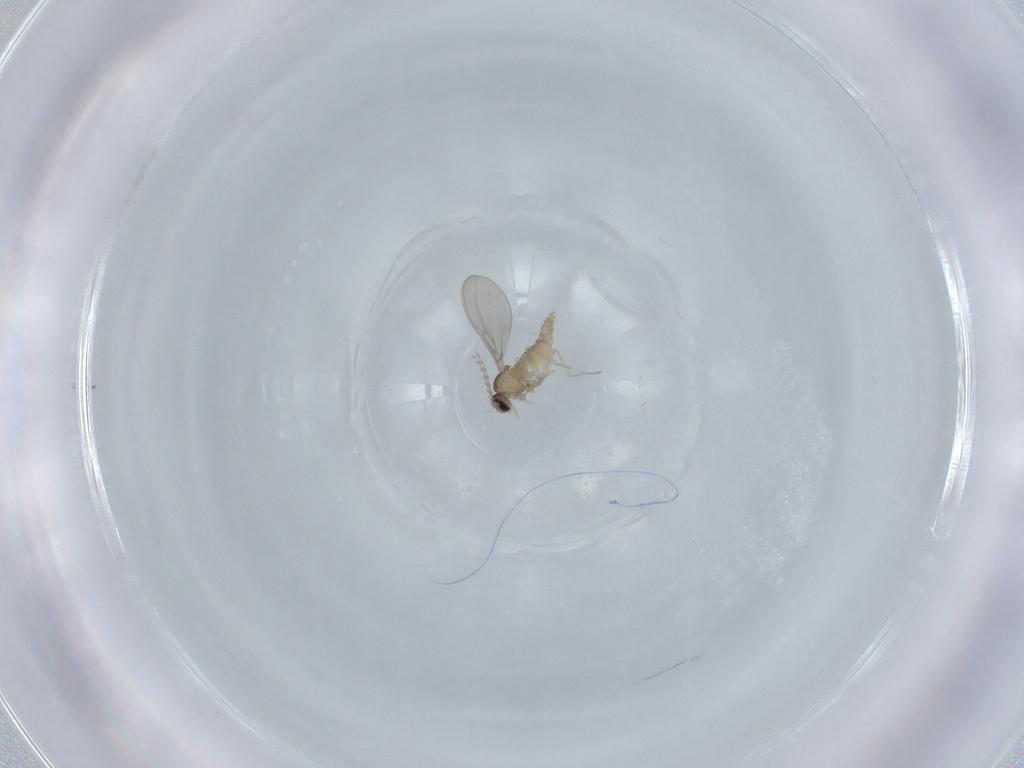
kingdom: Animalia
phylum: Arthropoda
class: Insecta
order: Diptera
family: Cecidomyiidae
